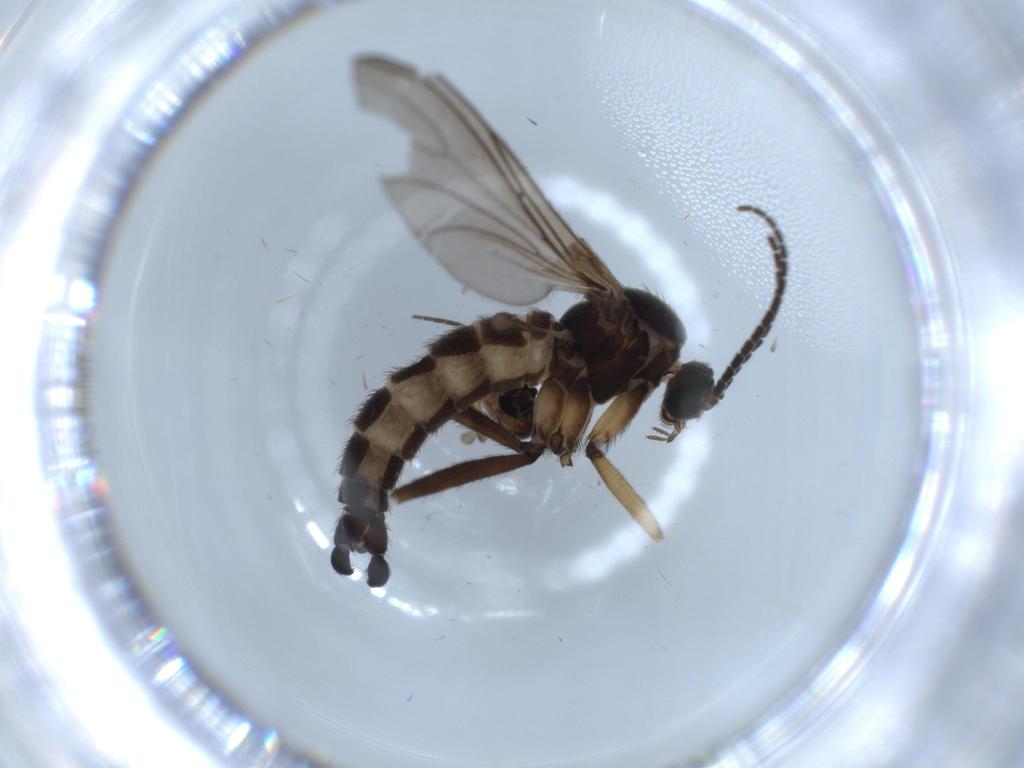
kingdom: Animalia
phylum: Arthropoda
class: Insecta
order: Diptera
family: Sciaridae
